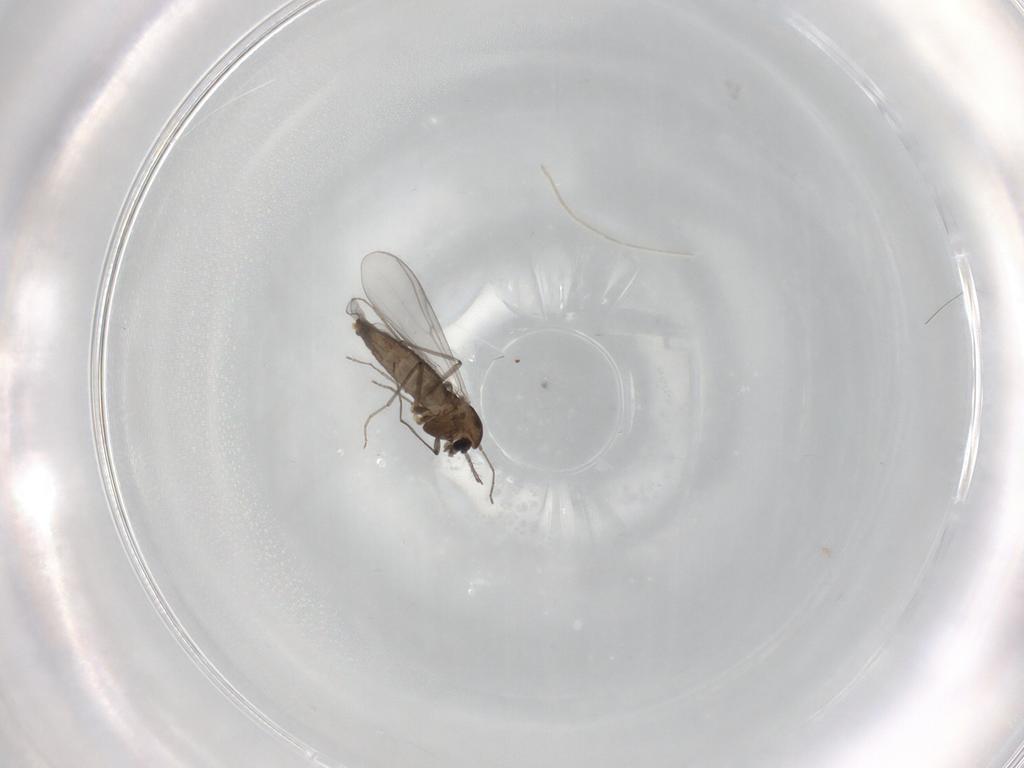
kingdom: Animalia
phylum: Arthropoda
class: Insecta
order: Diptera
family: Chironomidae
